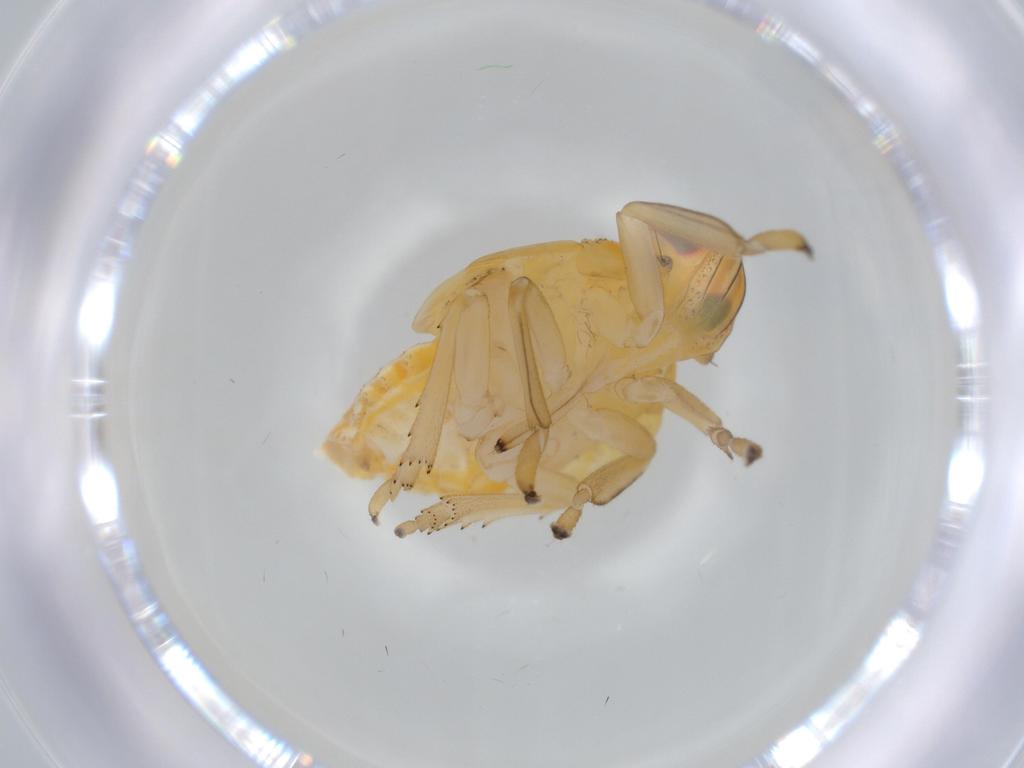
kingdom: Animalia
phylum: Arthropoda
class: Insecta
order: Hemiptera
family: Issidae
